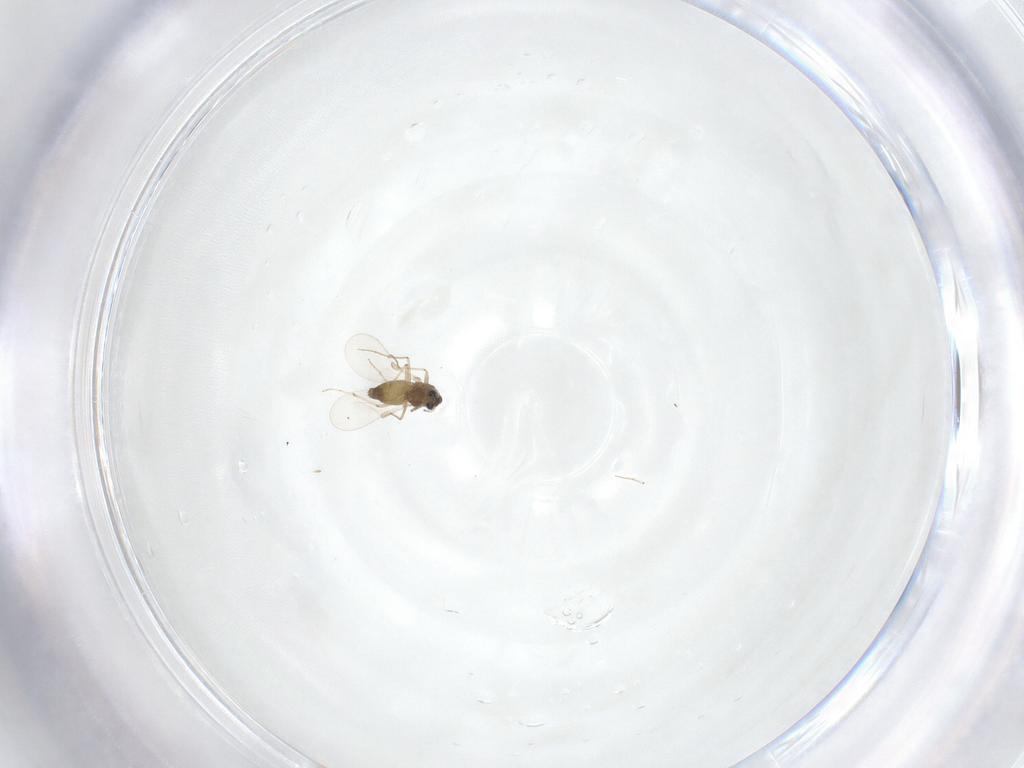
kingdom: Animalia
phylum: Arthropoda
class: Insecta
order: Diptera
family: Chironomidae
